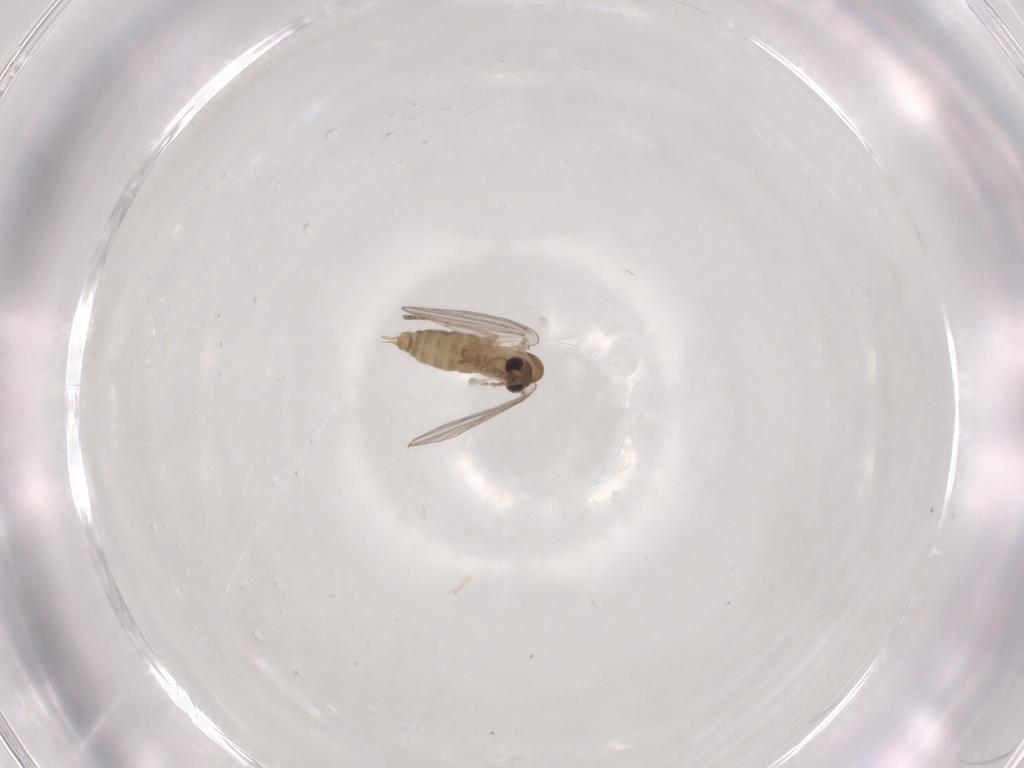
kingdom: Animalia
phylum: Arthropoda
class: Insecta
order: Diptera
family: Psychodidae
